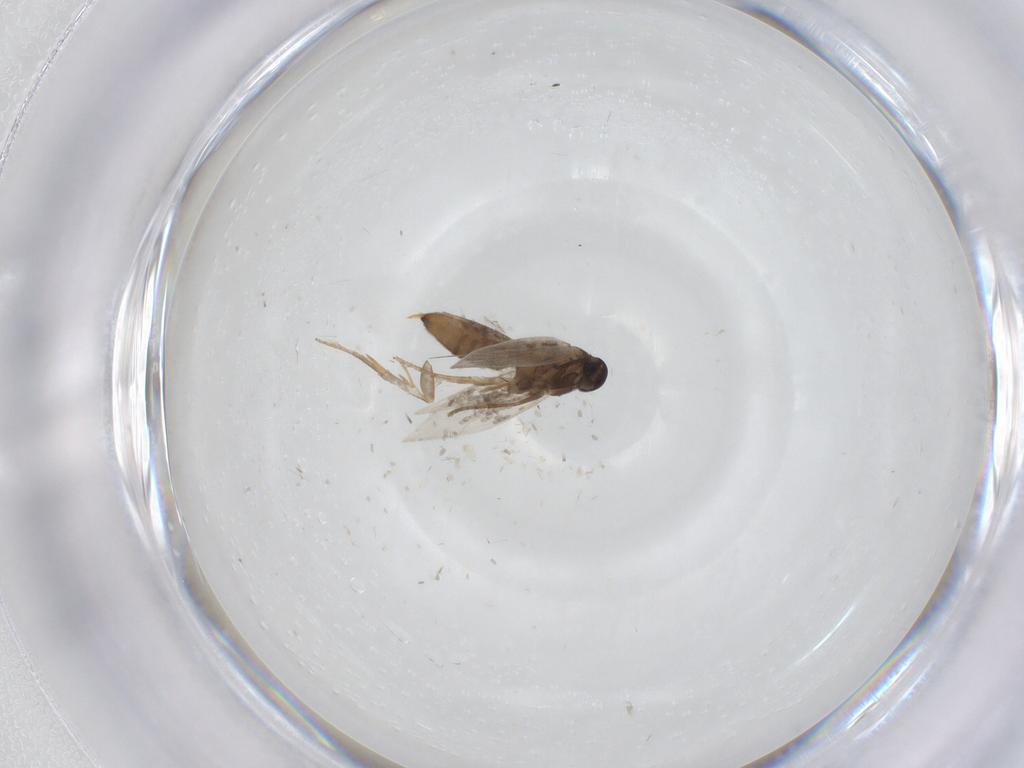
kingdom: Animalia
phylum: Arthropoda
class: Insecta
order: Lepidoptera
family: Heliozelidae
